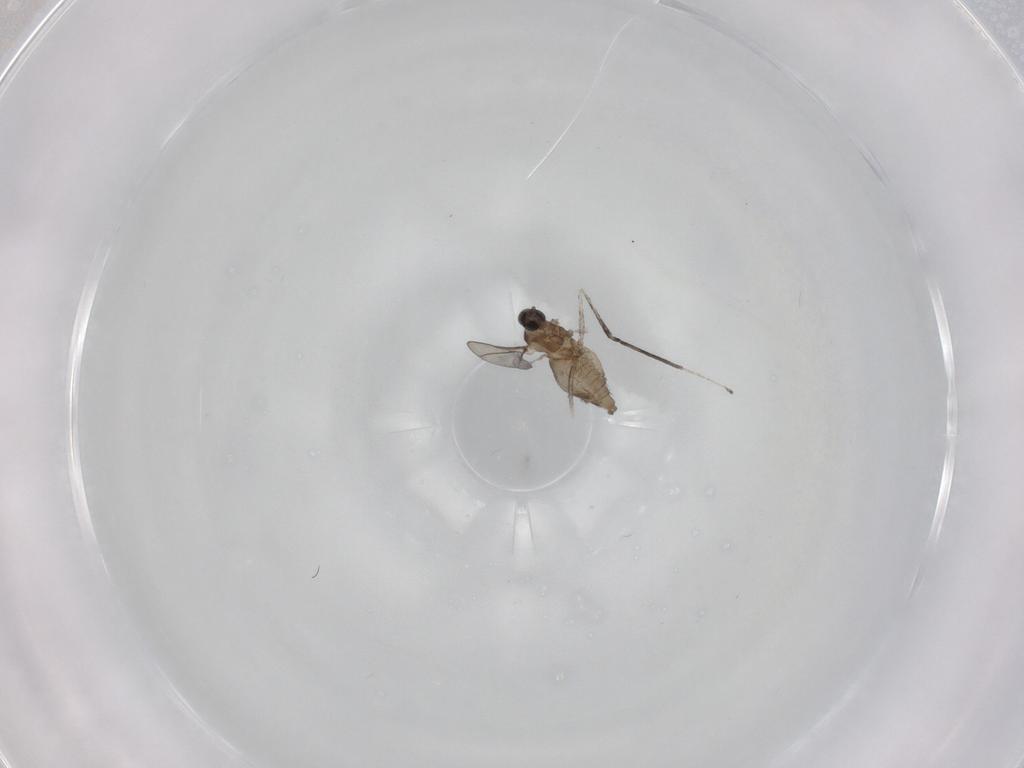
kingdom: Animalia
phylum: Arthropoda
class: Insecta
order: Diptera
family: Cecidomyiidae
